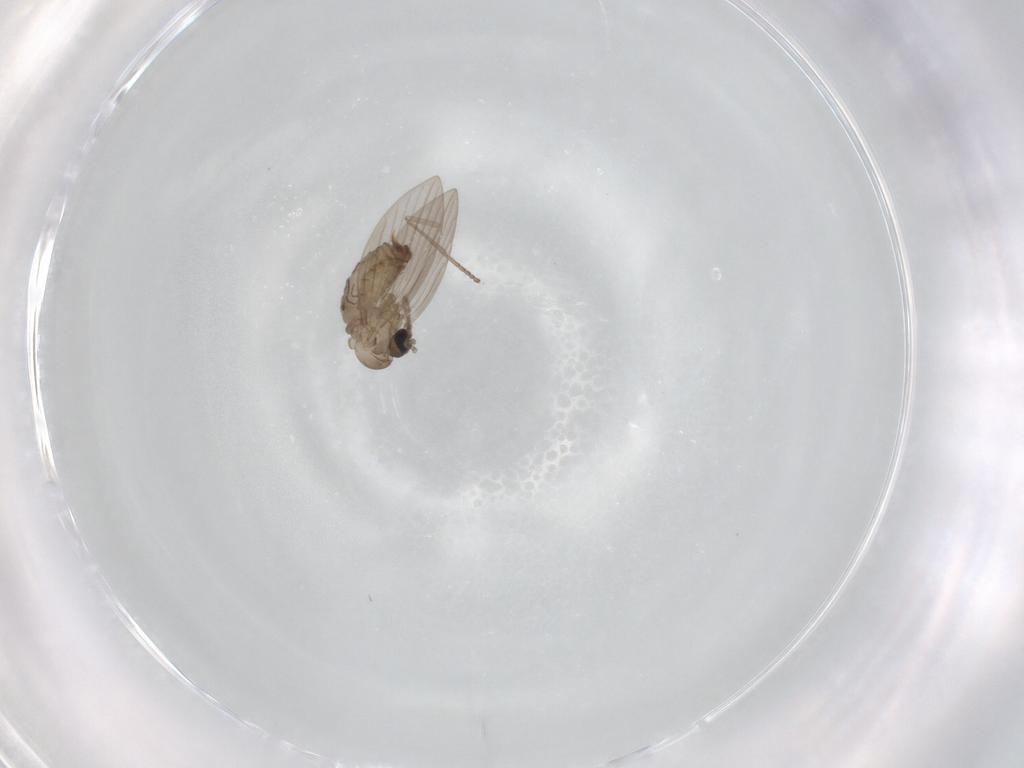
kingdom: Animalia
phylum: Arthropoda
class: Insecta
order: Diptera
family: Psychodidae
